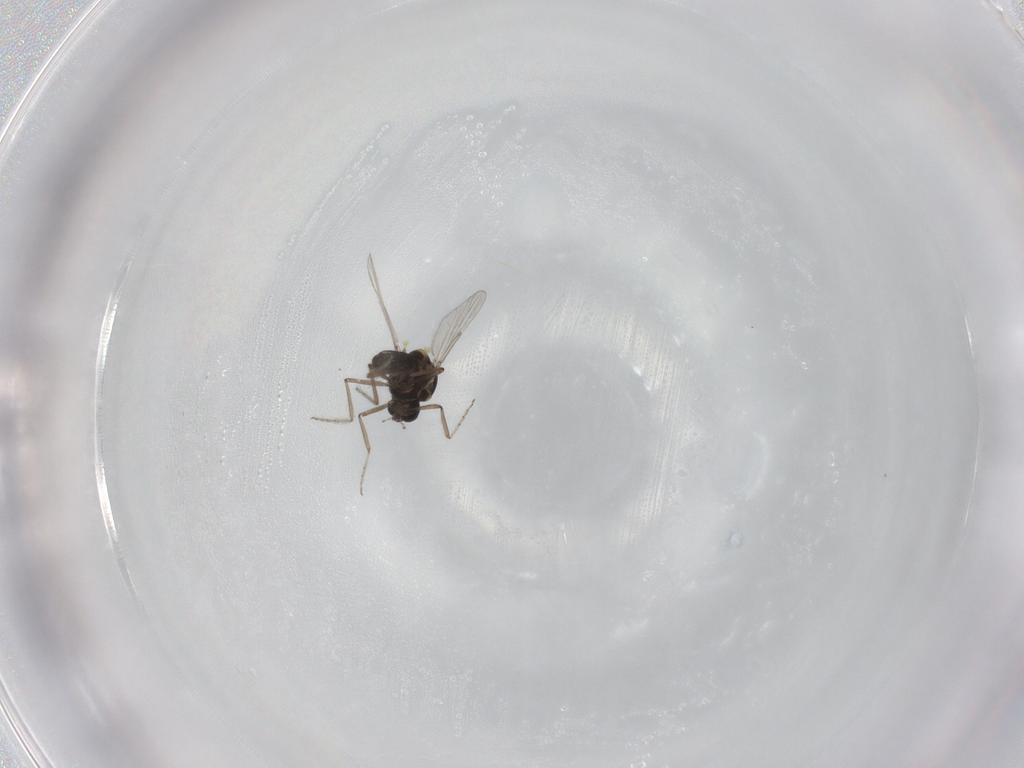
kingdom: Animalia
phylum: Arthropoda
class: Insecta
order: Diptera
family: Ceratopogonidae
